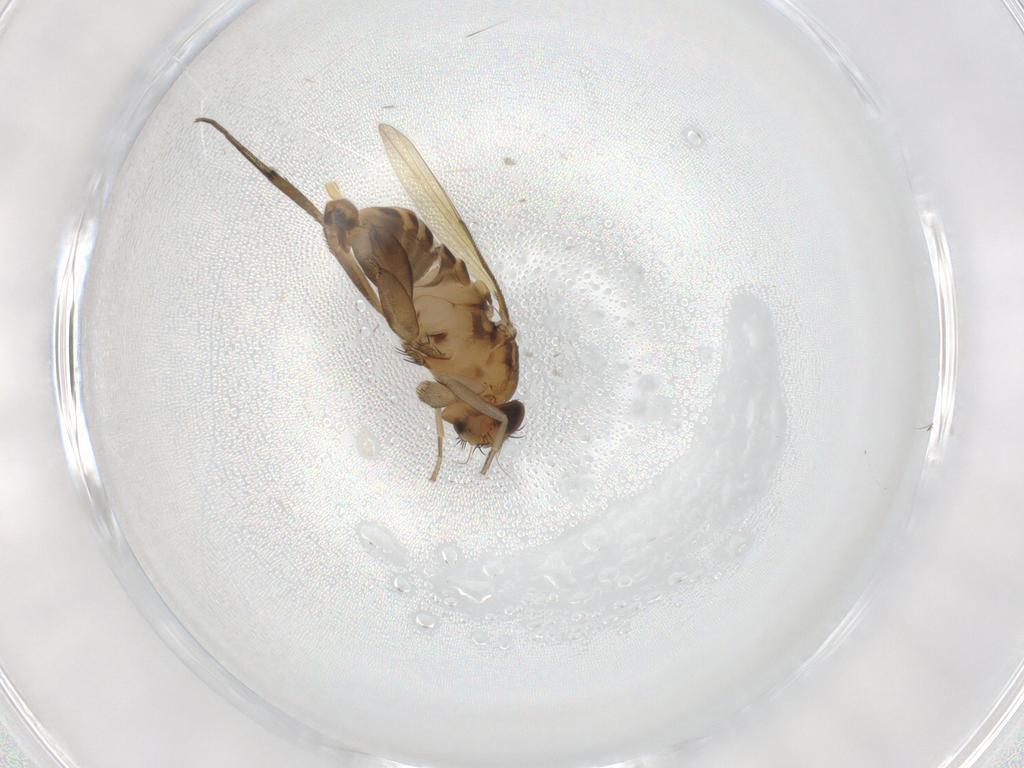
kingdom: Animalia
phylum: Arthropoda
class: Insecta
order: Diptera
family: Phoridae
